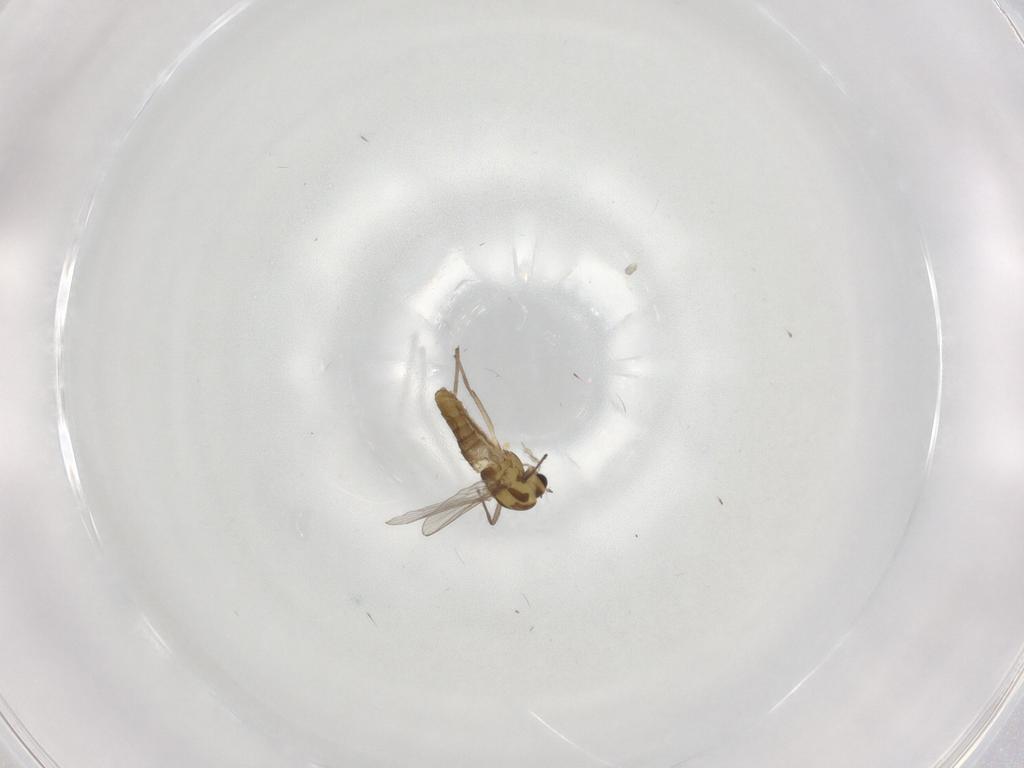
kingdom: Animalia
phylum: Arthropoda
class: Insecta
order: Diptera
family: Chironomidae
